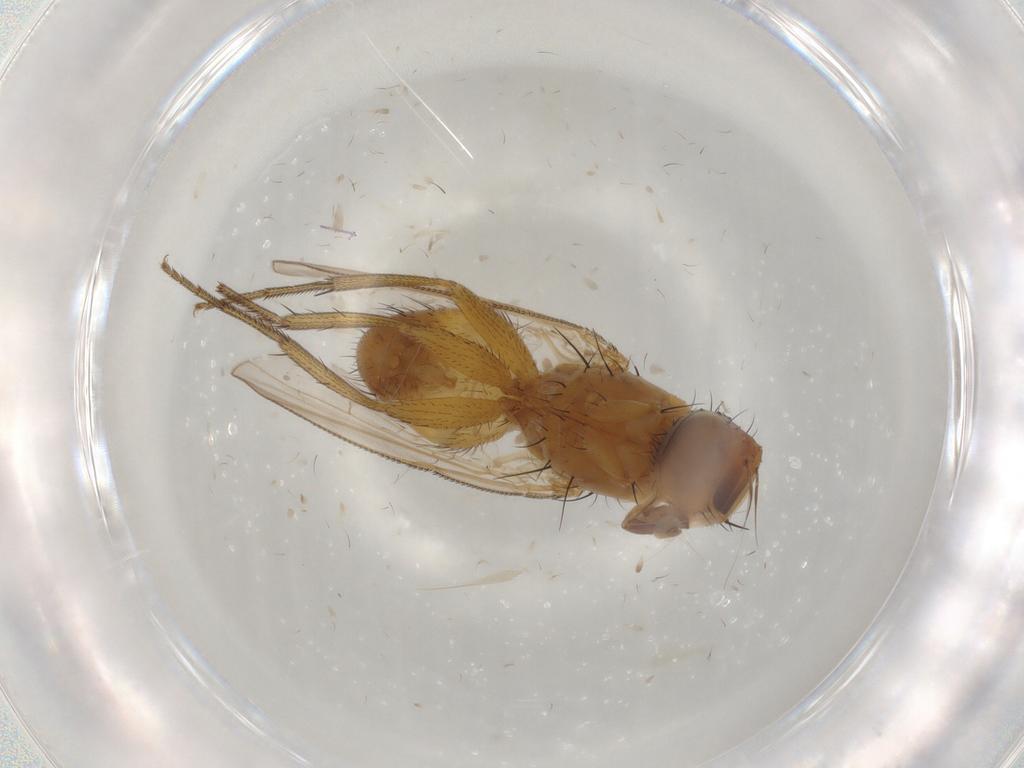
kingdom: Animalia
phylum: Arthropoda
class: Insecta
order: Diptera
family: Muscidae
